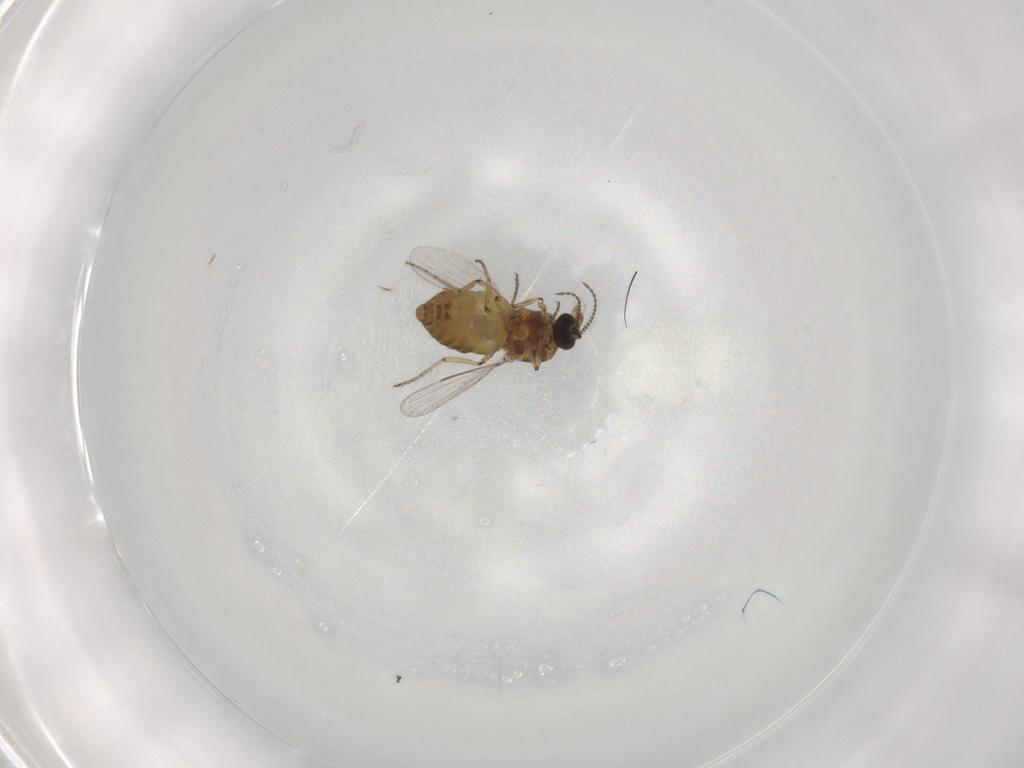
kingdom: Animalia
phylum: Arthropoda
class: Insecta
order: Diptera
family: Ceratopogonidae
